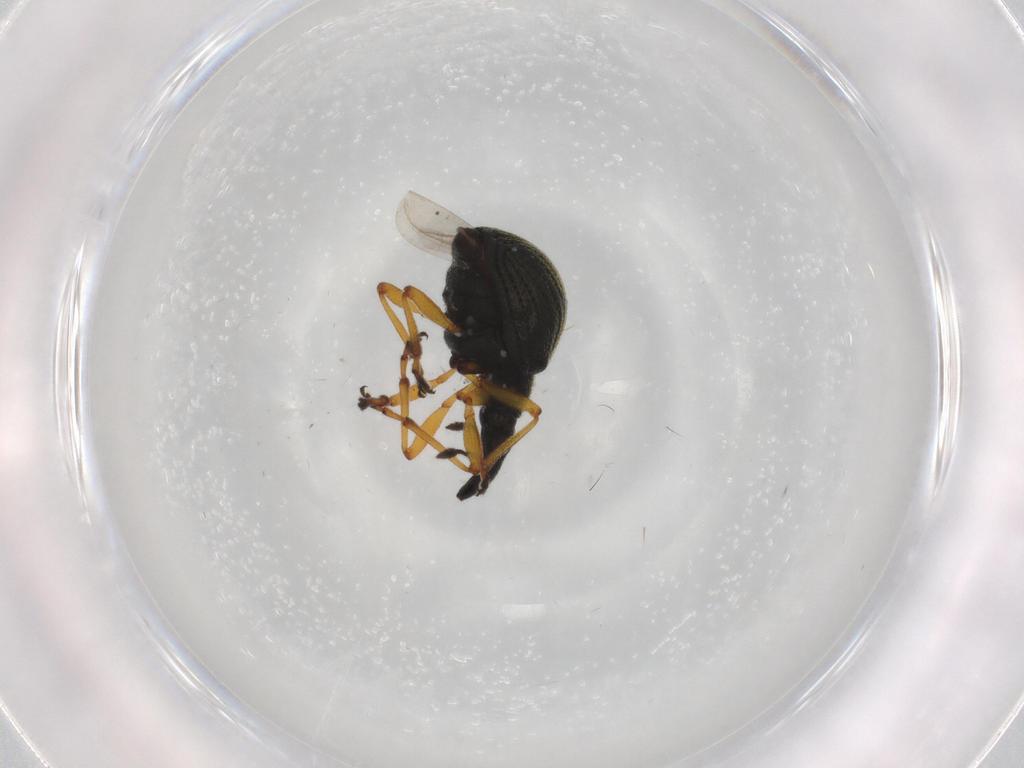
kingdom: Animalia
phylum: Arthropoda
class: Insecta
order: Coleoptera
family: Brentidae
